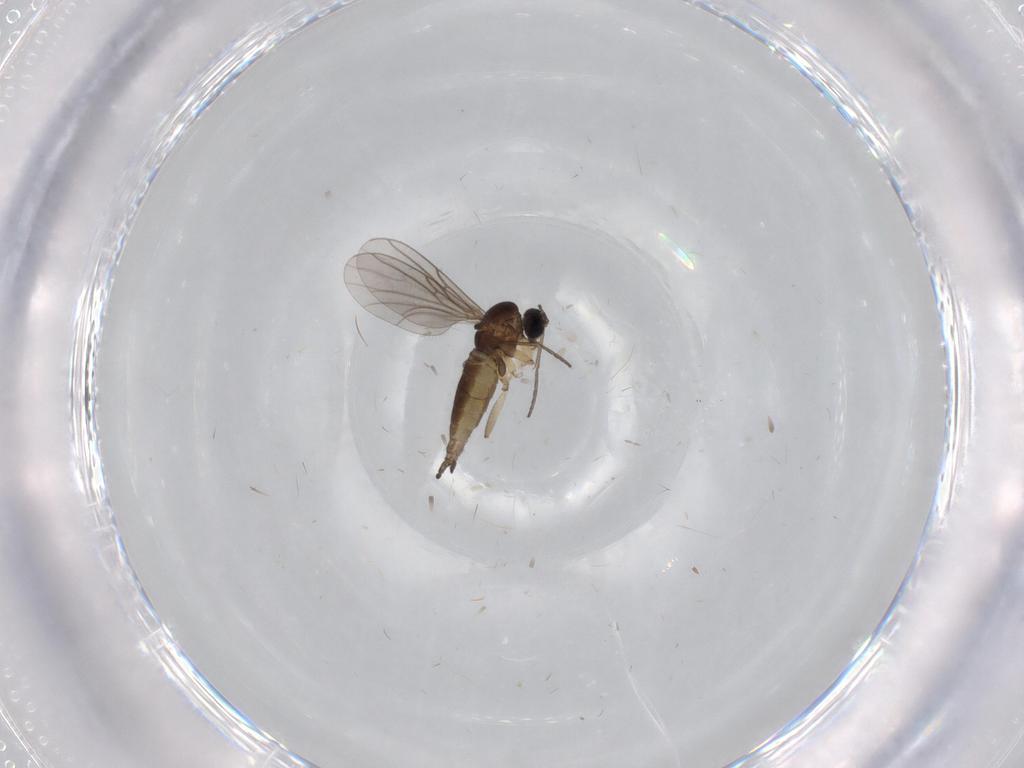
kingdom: Animalia
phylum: Arthropoda
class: Insecta
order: Diptera
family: Sciaridae
